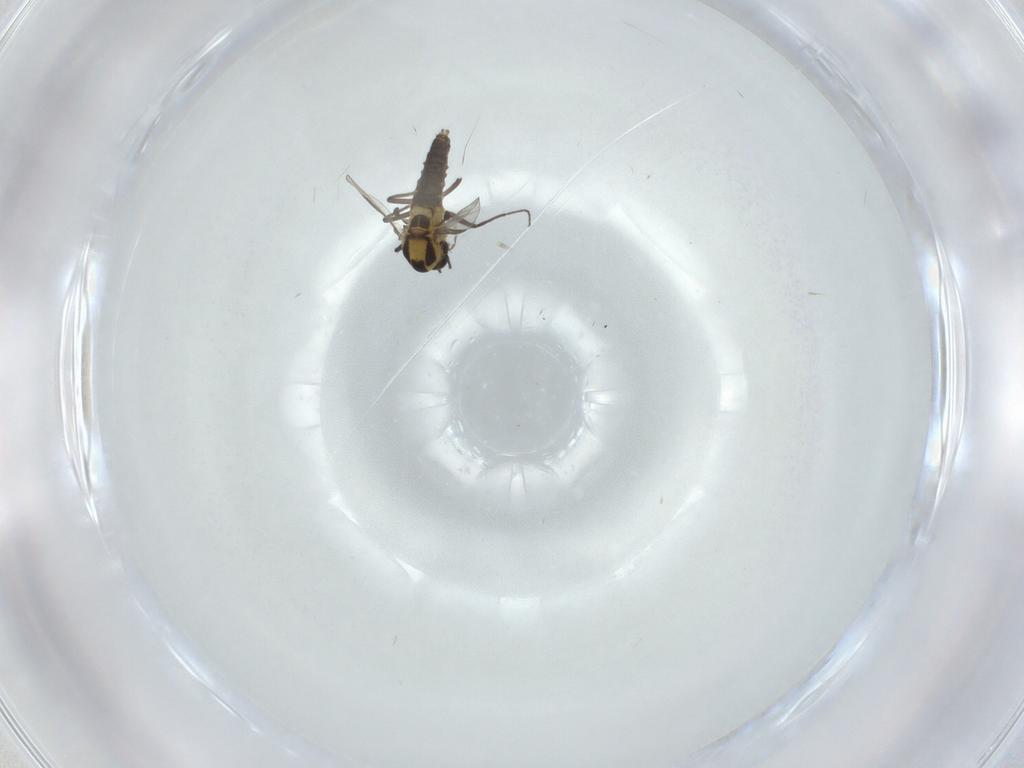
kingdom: Animalia
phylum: Arthropoda
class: Insecta
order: Diptera
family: Chironomidae
